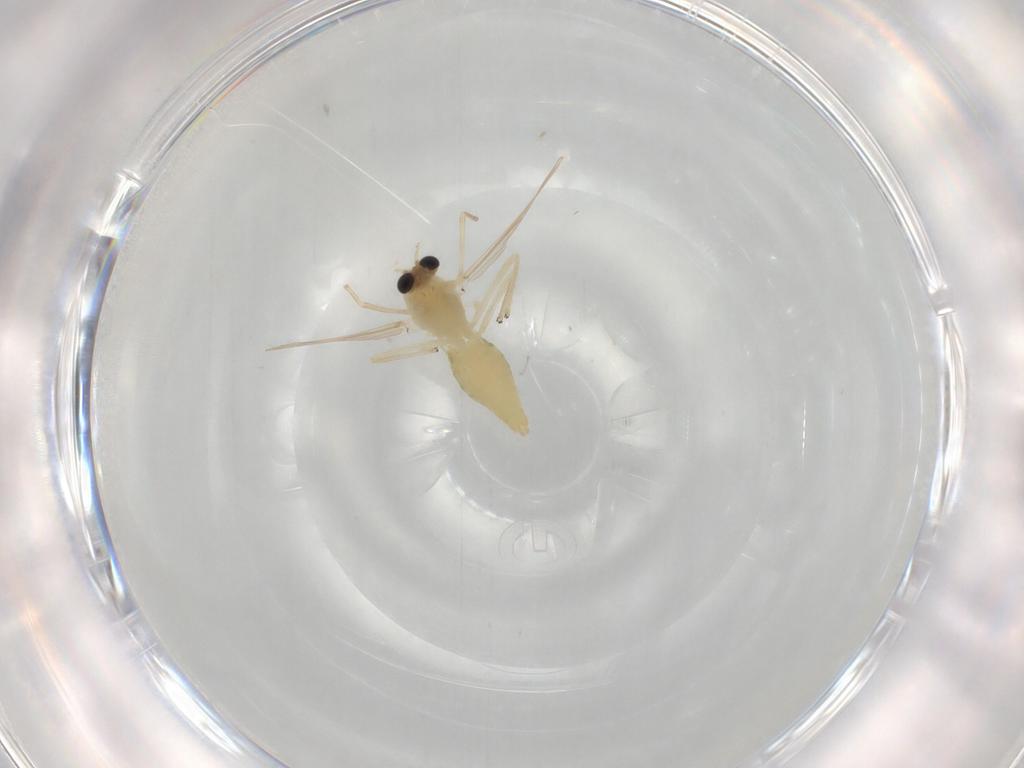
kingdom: Animalia
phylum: Arthropoda
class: Insecta
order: Diptera
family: Chironomidae
